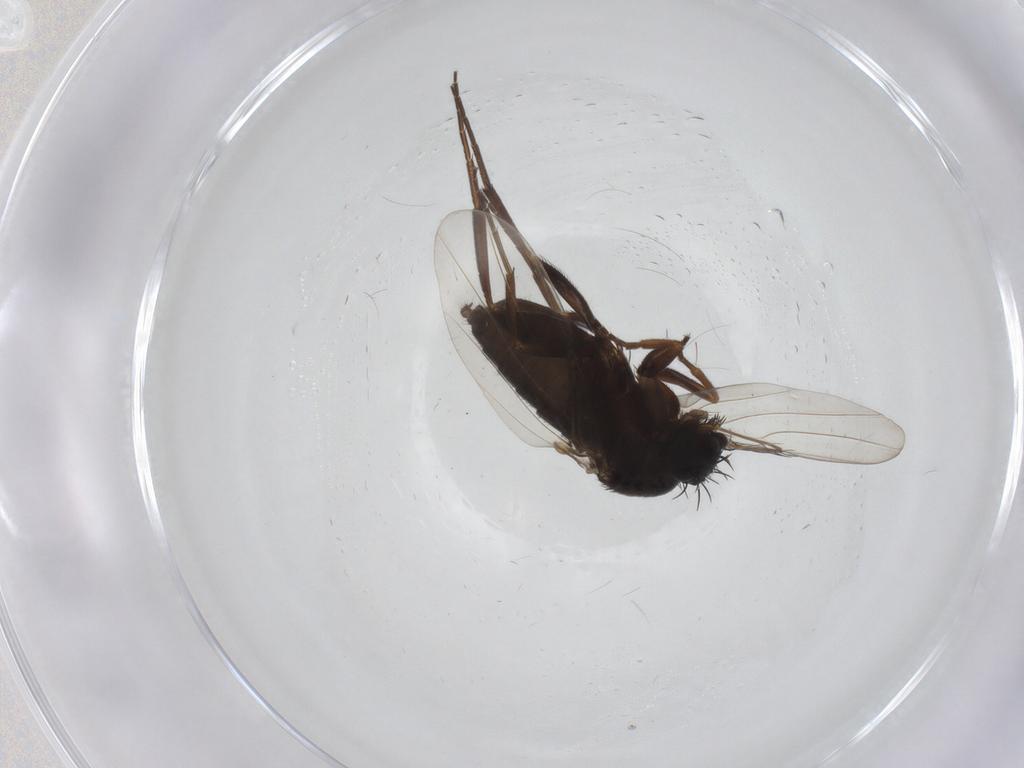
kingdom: Animalia
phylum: Arthropoda
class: Insecta
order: Diptera
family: Phoridae
